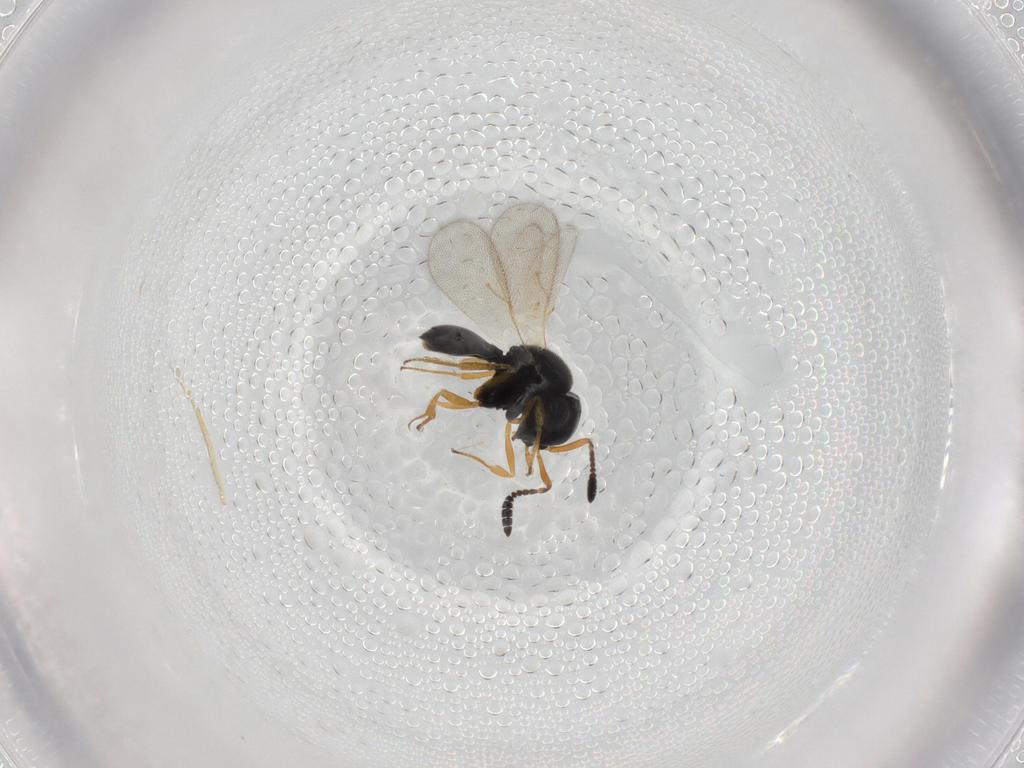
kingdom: Animalia
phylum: Arthropoda
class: Insecta
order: Hymenoptera
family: Scelionidae
